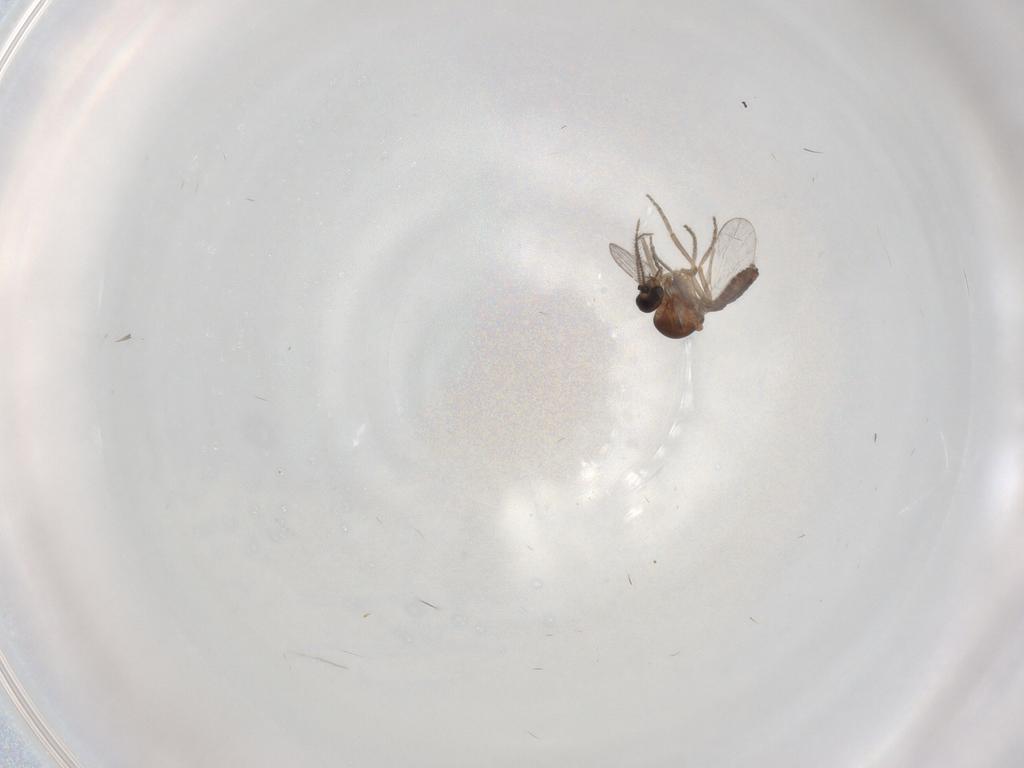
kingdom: Animalia
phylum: Arthropoda
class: Insecta
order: Diptera
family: Ceratopogonidae
